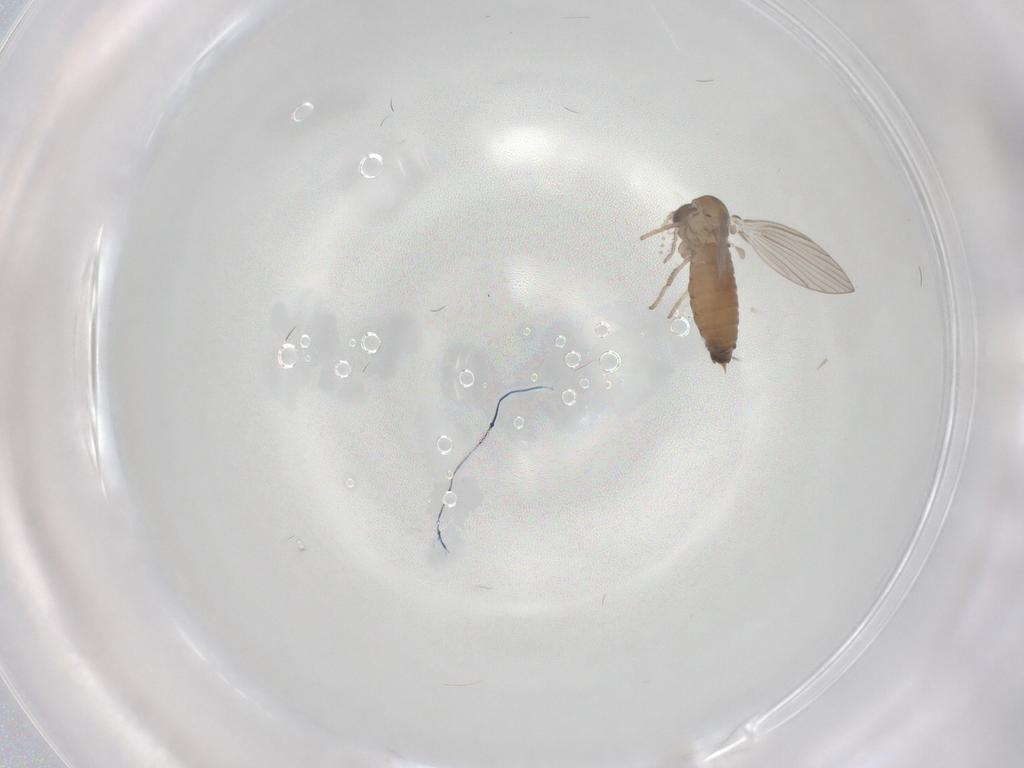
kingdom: Animalia
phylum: Arthropoda
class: Insecta
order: Diptera
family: Psychodidae
